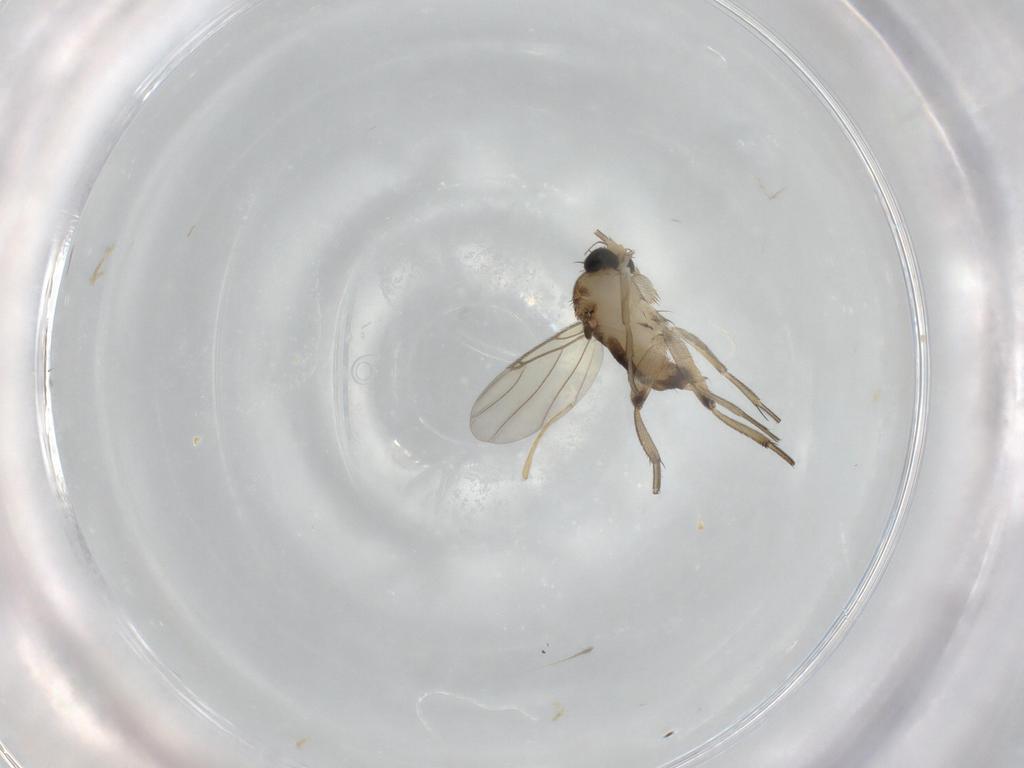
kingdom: Animalia
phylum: Arthropoda
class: Insecta
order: Diptera
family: Phoridae
